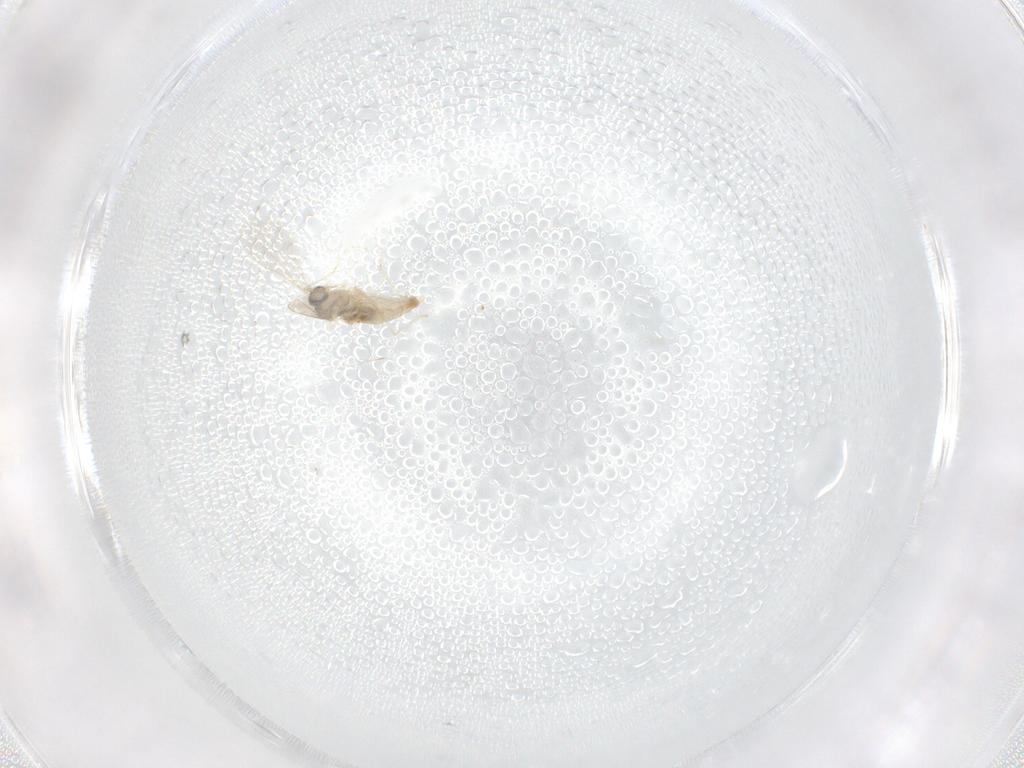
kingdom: Animalia
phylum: Arthropoda
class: Insecta
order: Diptera
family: Cecidomyiidae
